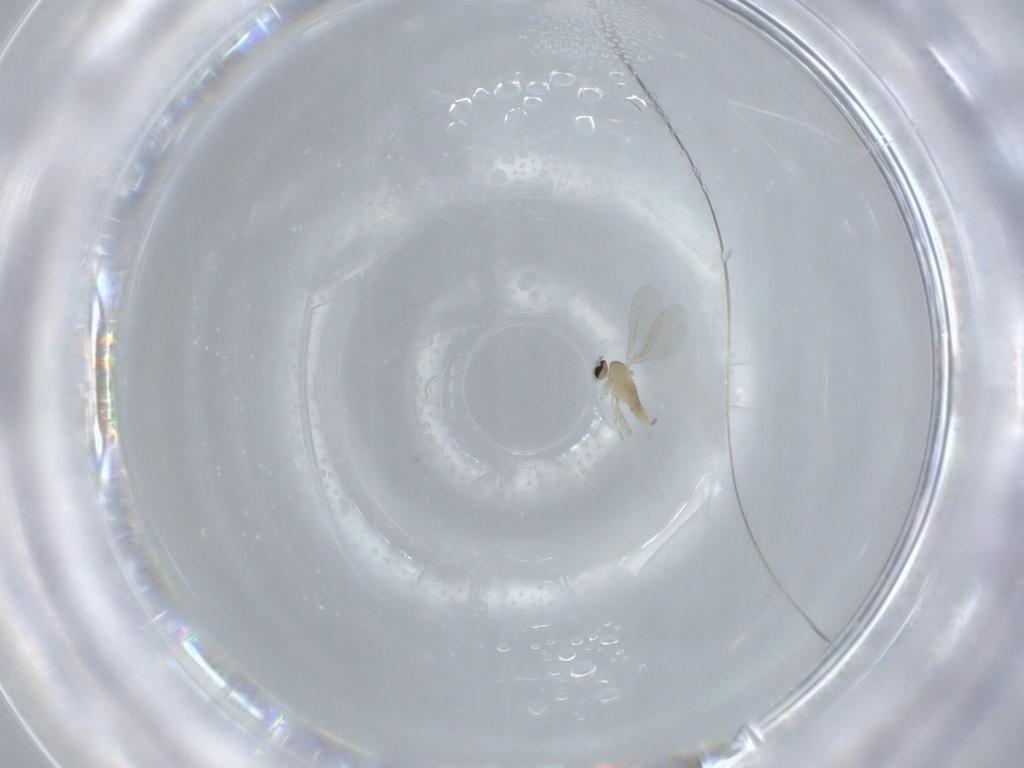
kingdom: Animalia
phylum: Arthropoda
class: Insecta
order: Diptera
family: Cecidomyiidae
